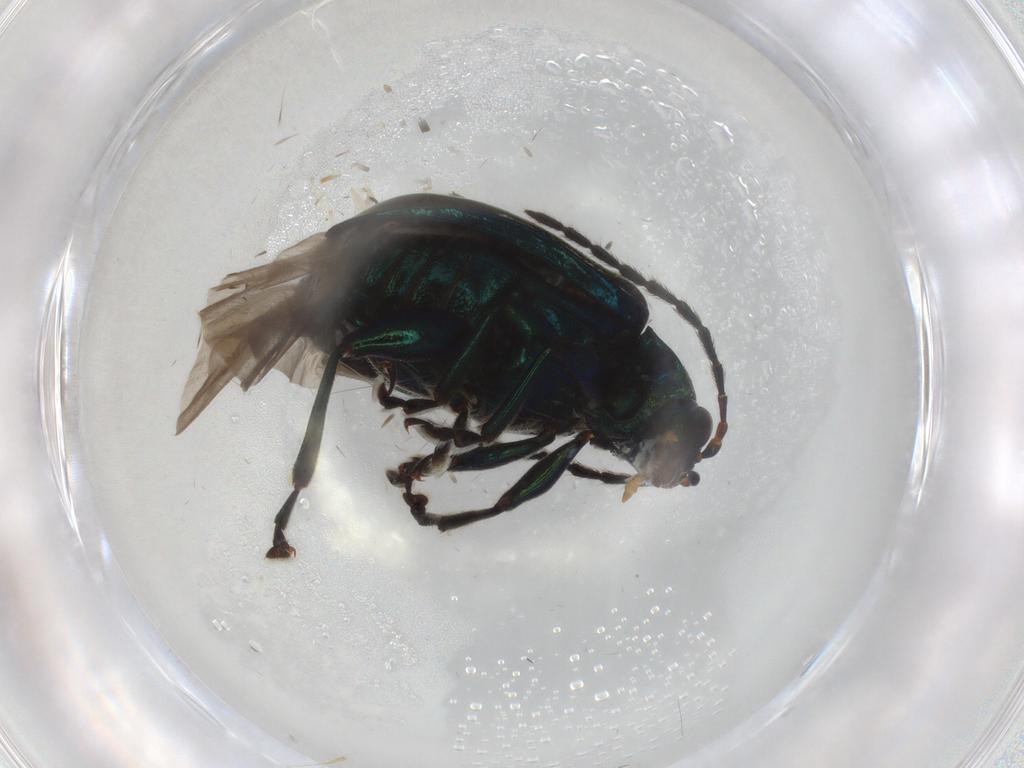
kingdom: Animalia
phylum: Arthropoda
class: Insecta
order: Coleoptera
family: Chrysomelidae
